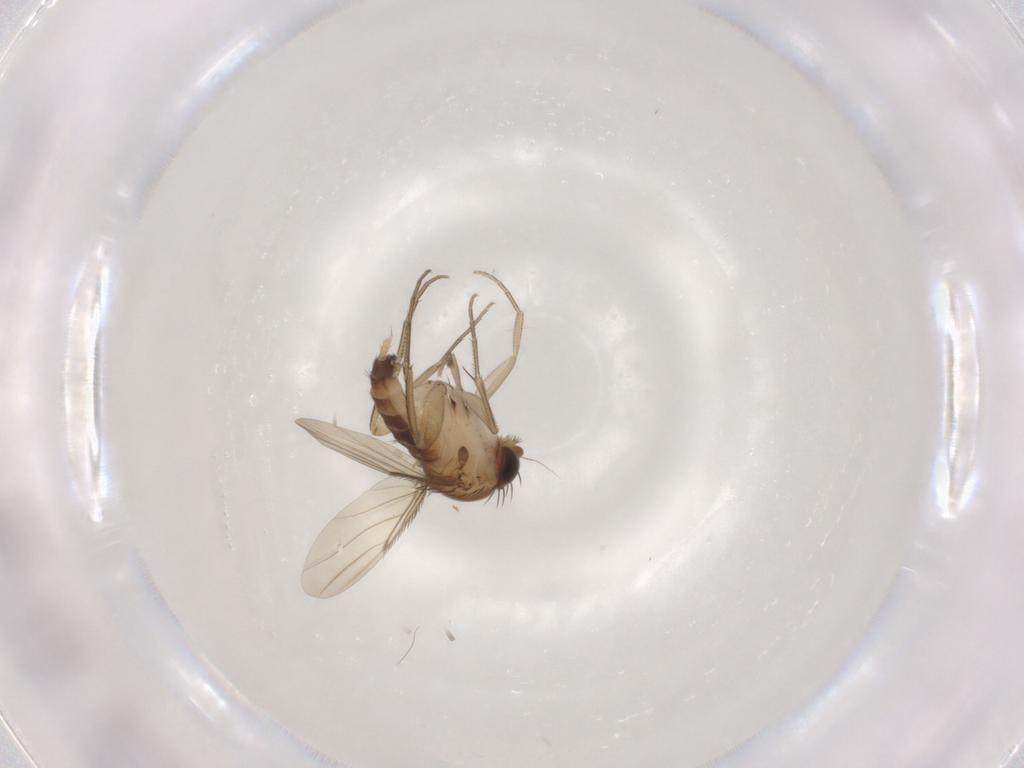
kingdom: Animalia
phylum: Arthropoda
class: Insecta
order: Diptera
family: Phoridae
